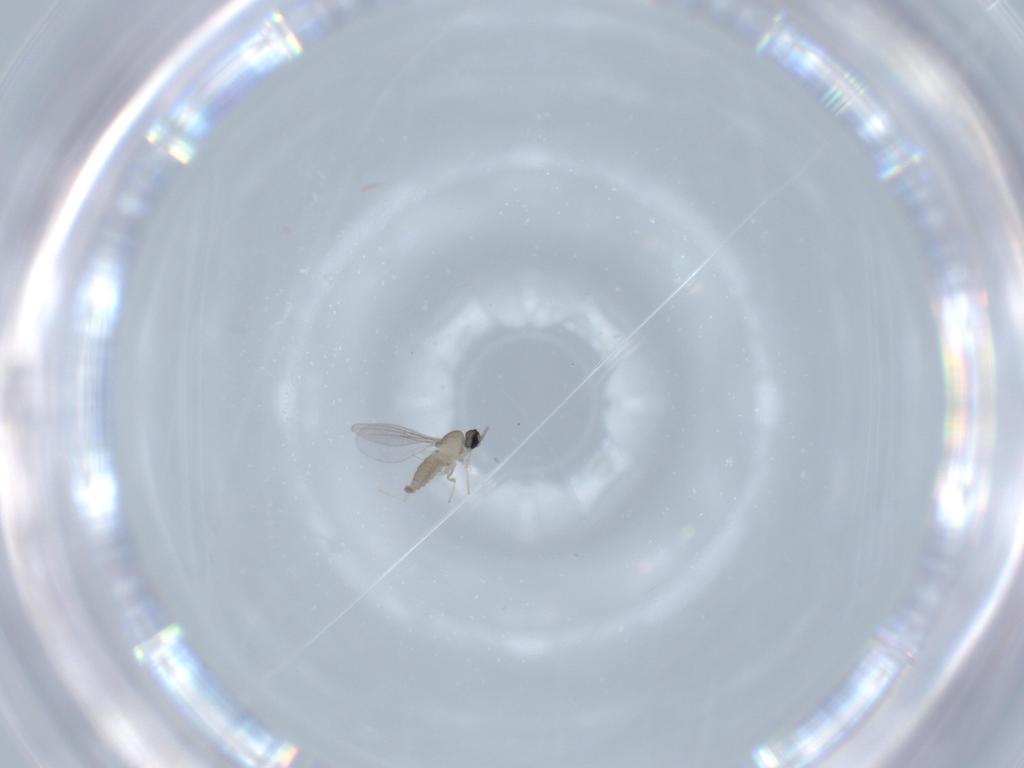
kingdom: Animalia
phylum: Arthropoda
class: Insecta
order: Diptera
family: Cecidomyiidae
